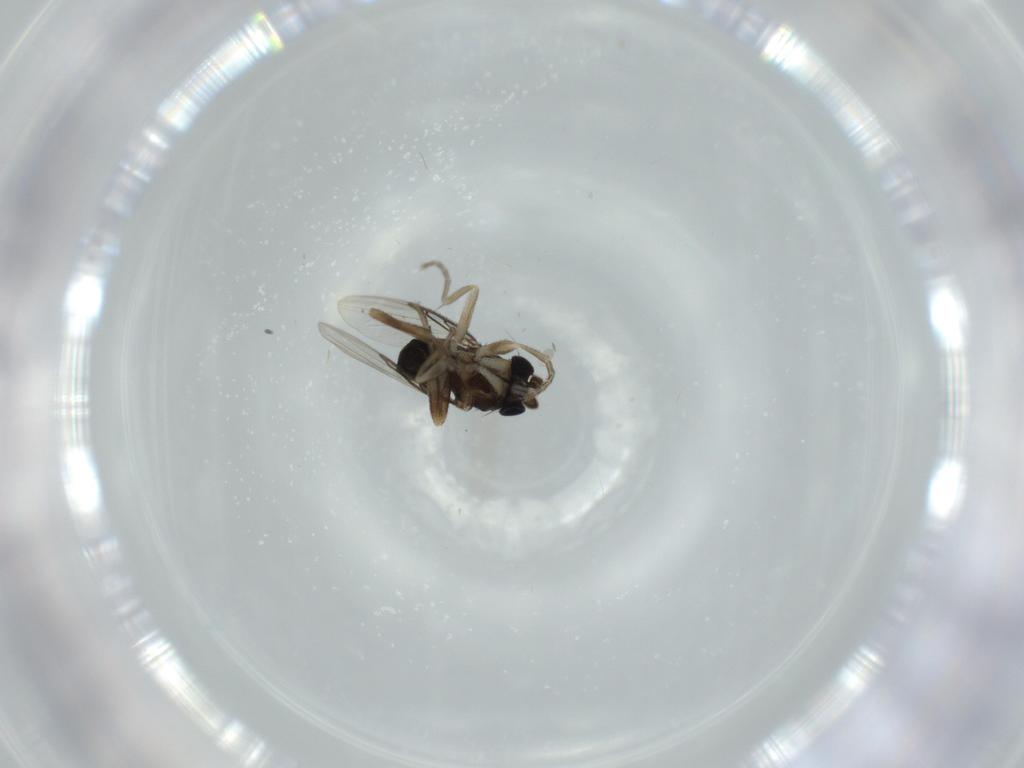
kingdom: Animalia
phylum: Arthropoda
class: Insecta
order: Diptera
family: Phoridae
